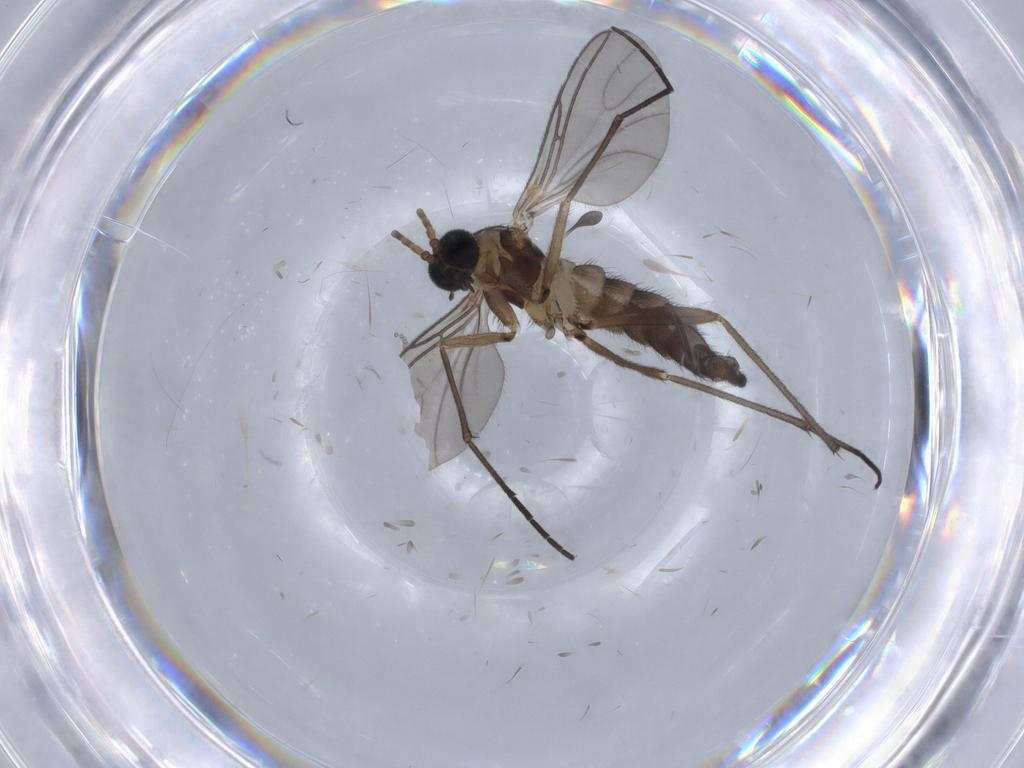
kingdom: Animalia
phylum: Arthropoda
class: Insecta
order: Diptera
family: Sciaridae
